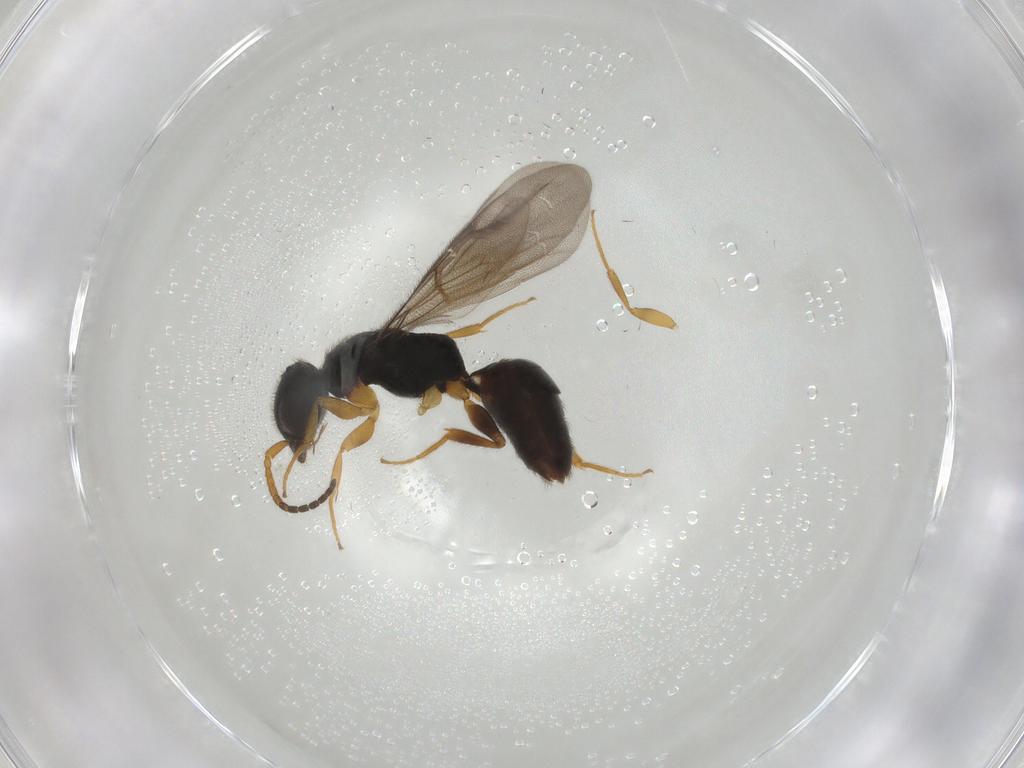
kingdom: Animalia
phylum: Arthropoda
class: Insecta
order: Hymenoptera
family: Bethylidae
